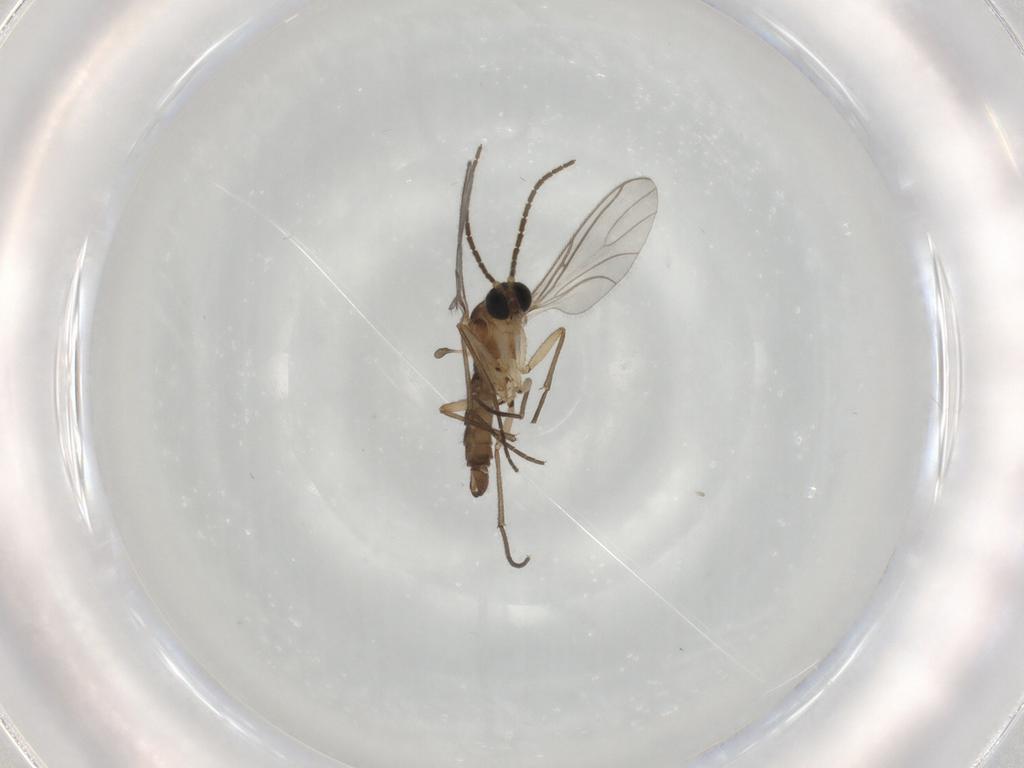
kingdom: Animalia
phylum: Arthropoda
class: Insecta
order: Diptera
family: Sciaridae
